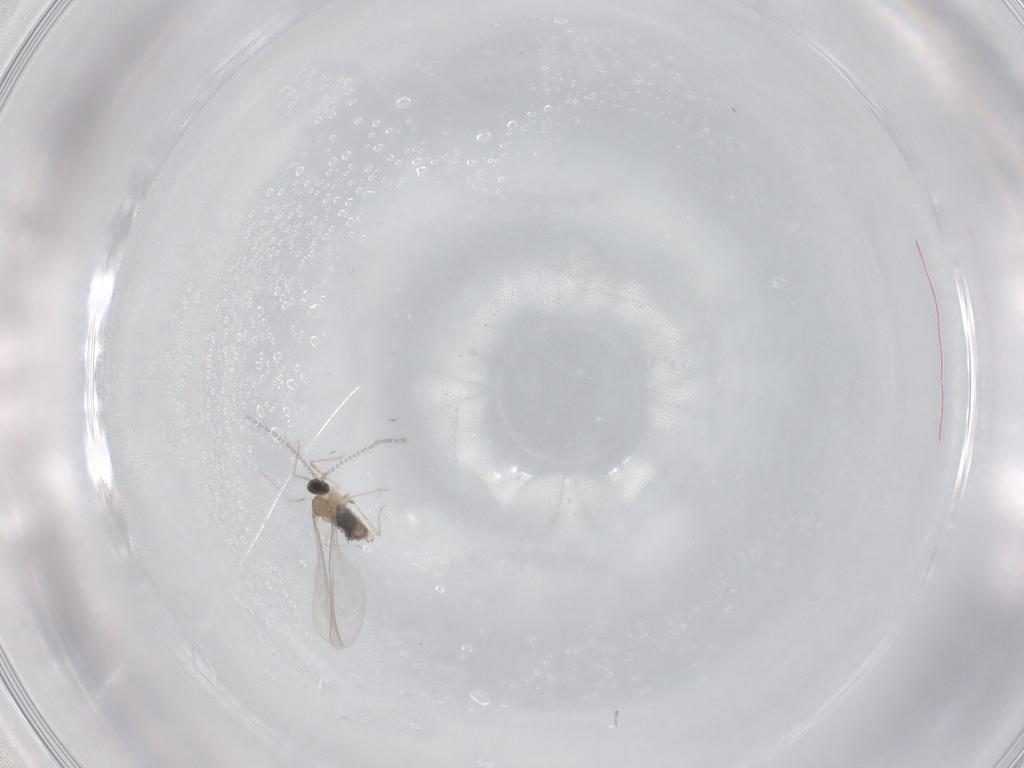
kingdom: Animalia
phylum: Arthropoda
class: Insecta
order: Diptera
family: Cecidomyiidae
